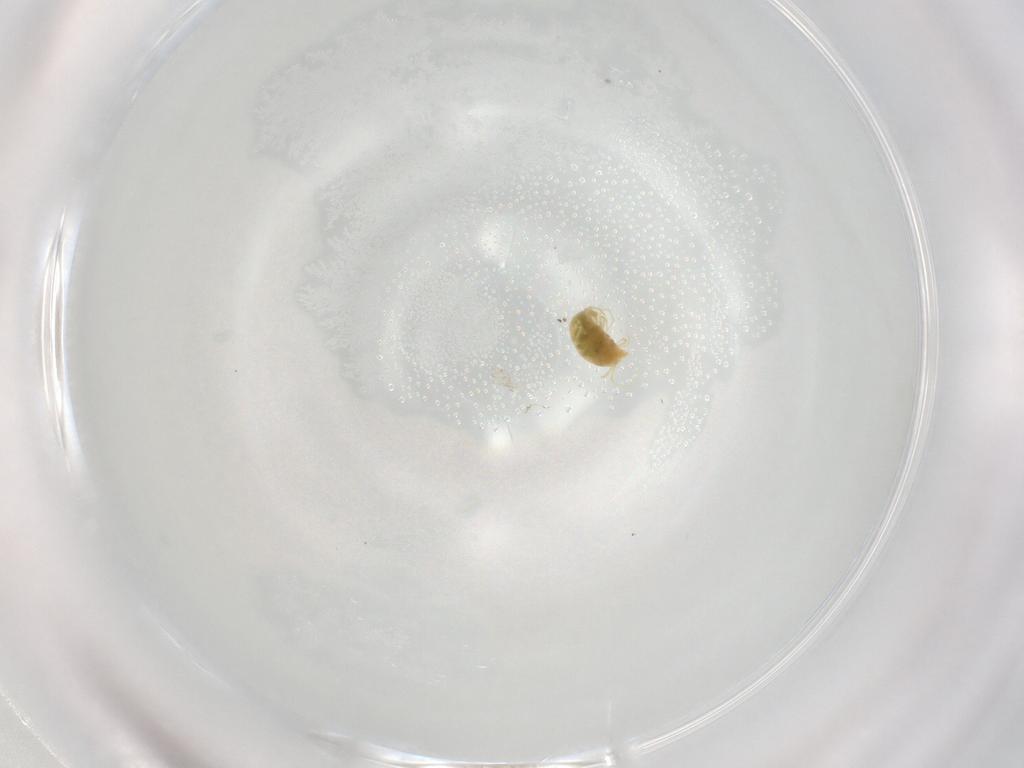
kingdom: Animalia
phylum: Arthropoda
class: Arachnida
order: Trombidiformes
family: Tetranychidae
